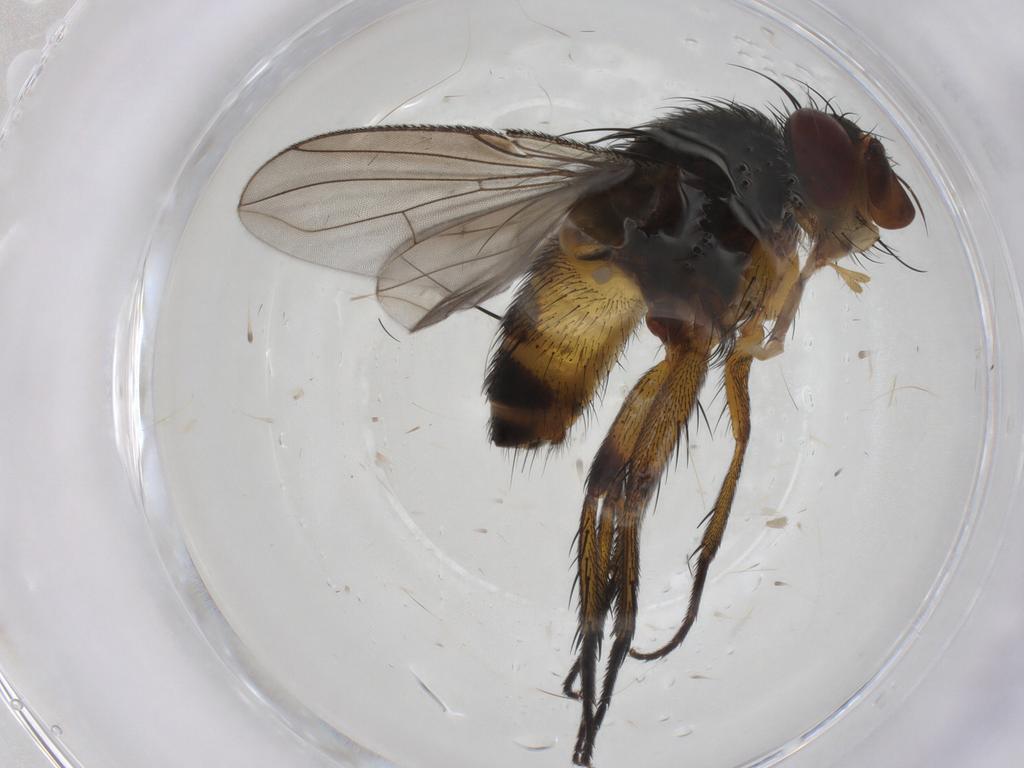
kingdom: Animalia
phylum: Arthropoda
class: Insecta
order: Diptera
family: Tachinidae
